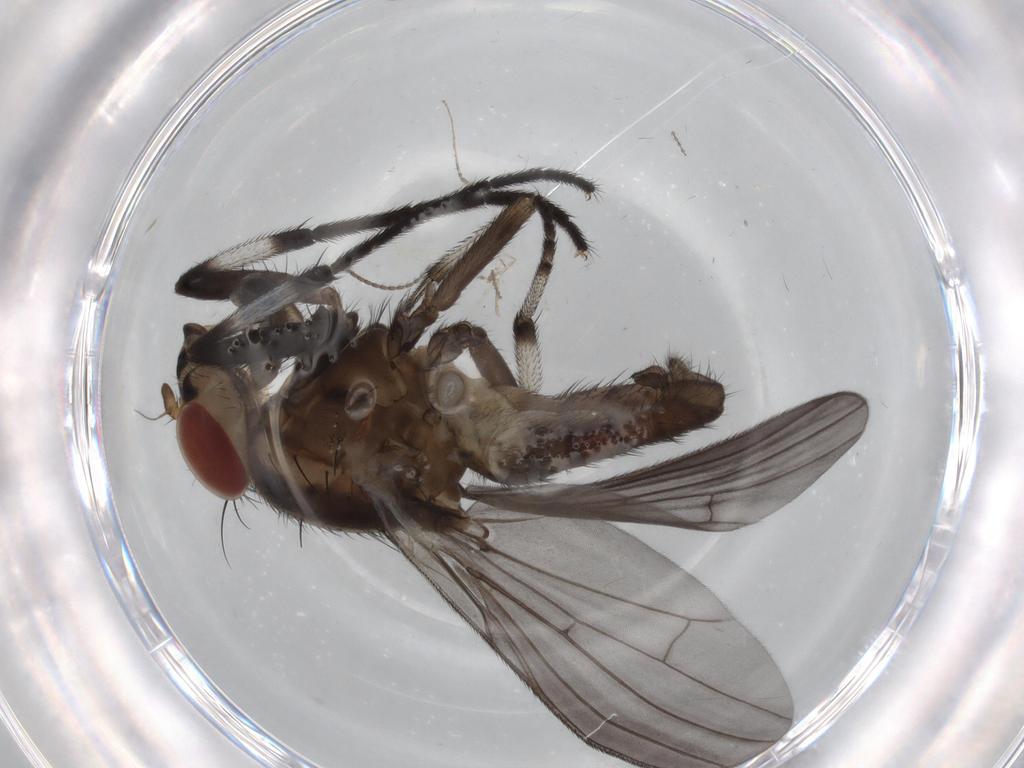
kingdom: Animalia
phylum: Arthropoda
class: Insecta
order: Diptera
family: Lauxaniidae
